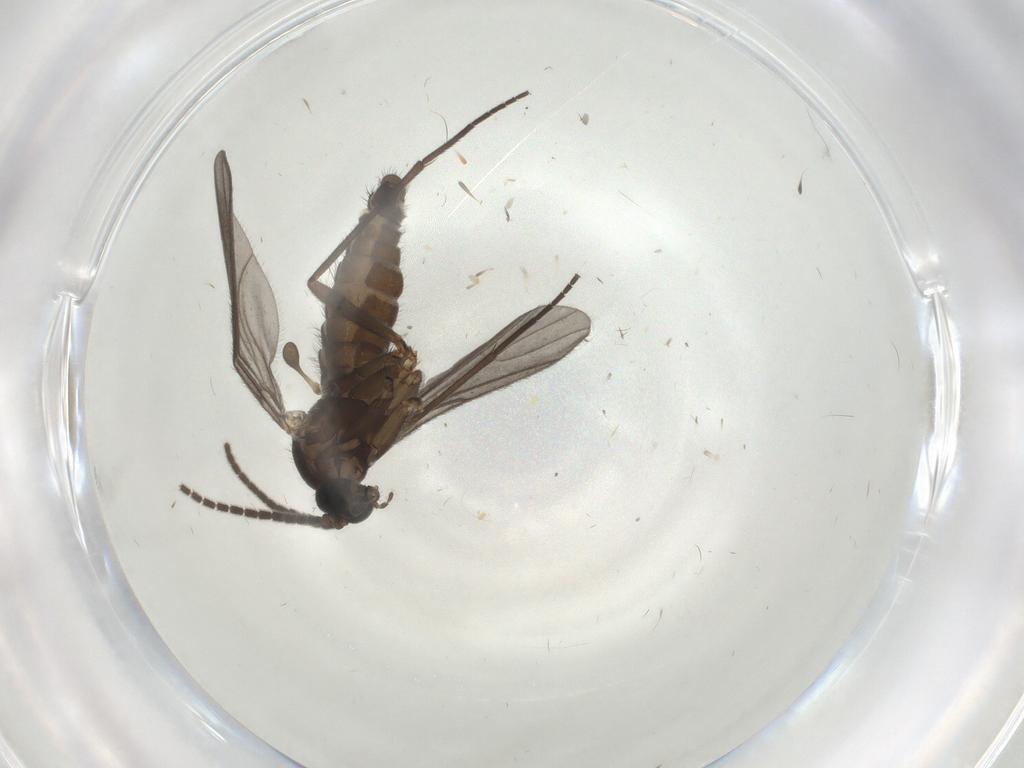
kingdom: Animalia
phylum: Arthropoda
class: Insecta
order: Diptera
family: Sciaridae
